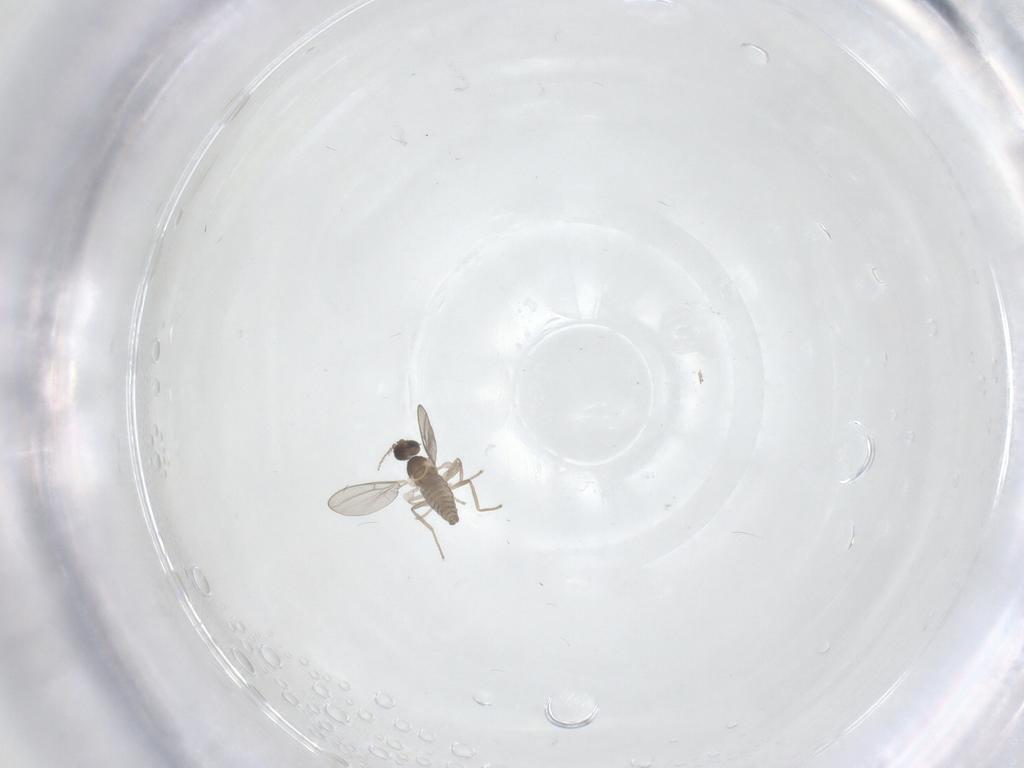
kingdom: Animalia
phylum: Arthropoda
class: Insecta
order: Diptera
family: Cecidomyiidae
